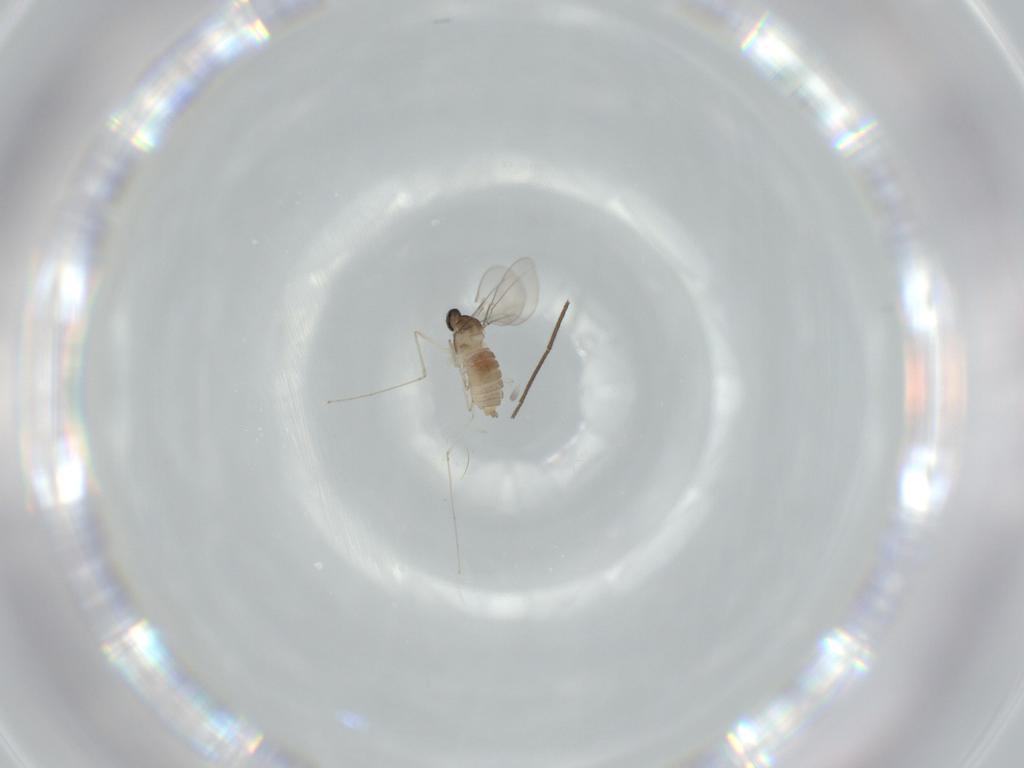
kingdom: Animalia
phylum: Arthropoda
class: Insecta
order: Diptera
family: Cecidomyiidae
